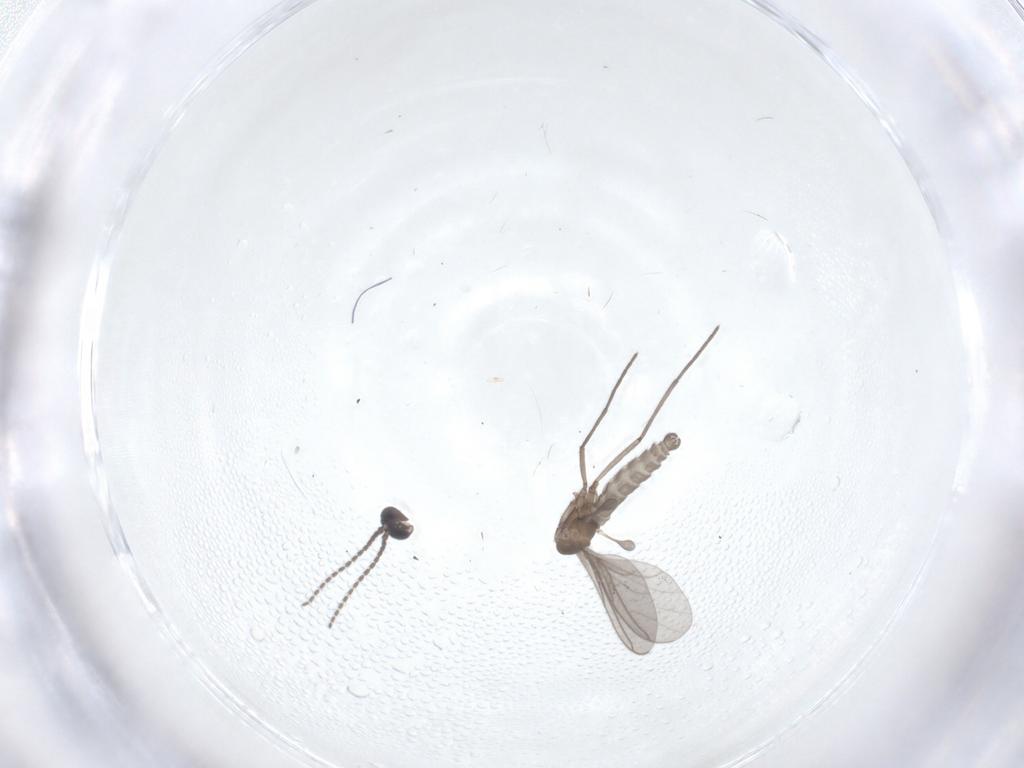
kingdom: Animalia
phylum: Arthropoda
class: Insecta
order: Diptera
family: Sciaridae
